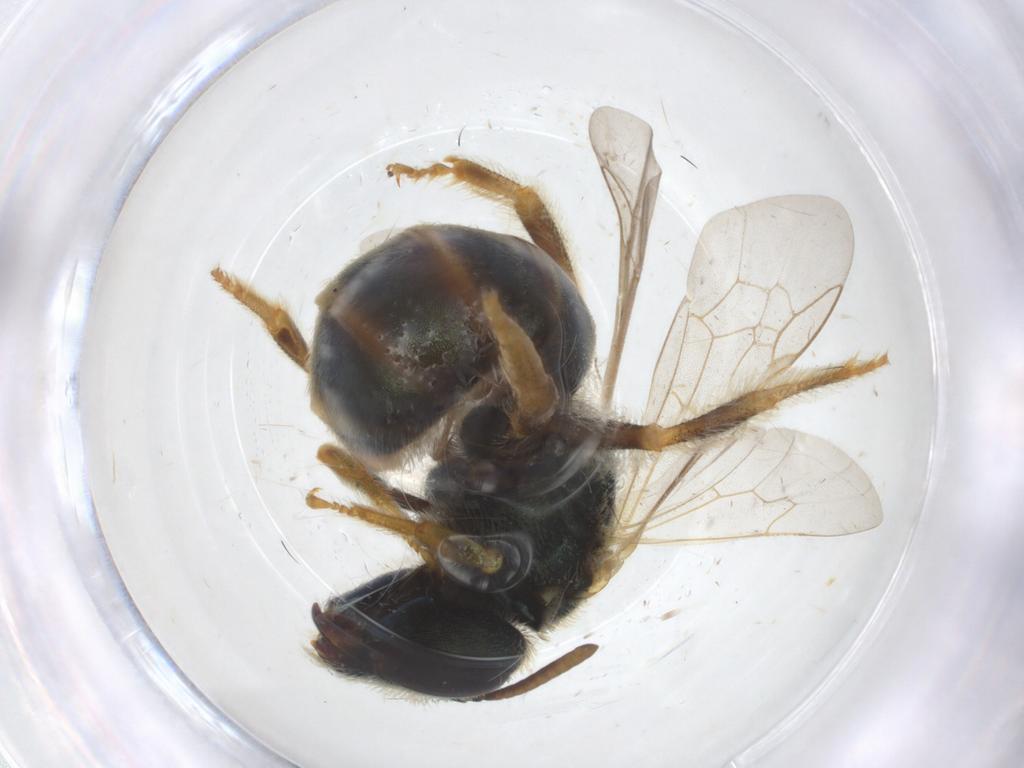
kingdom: Animalia
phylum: Arthropoda
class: Insecta
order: Hymenoptera
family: Halictidae
